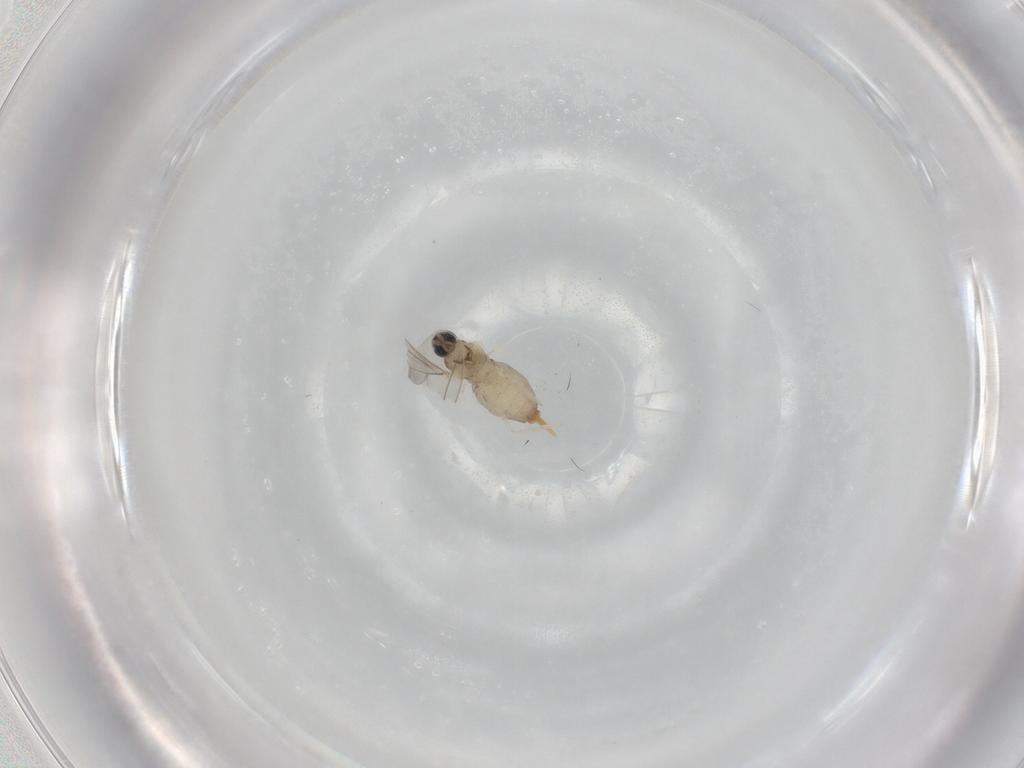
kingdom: Animalia
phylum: Arthropoda
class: Insecta
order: Diptera
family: Cecidomyiidae
